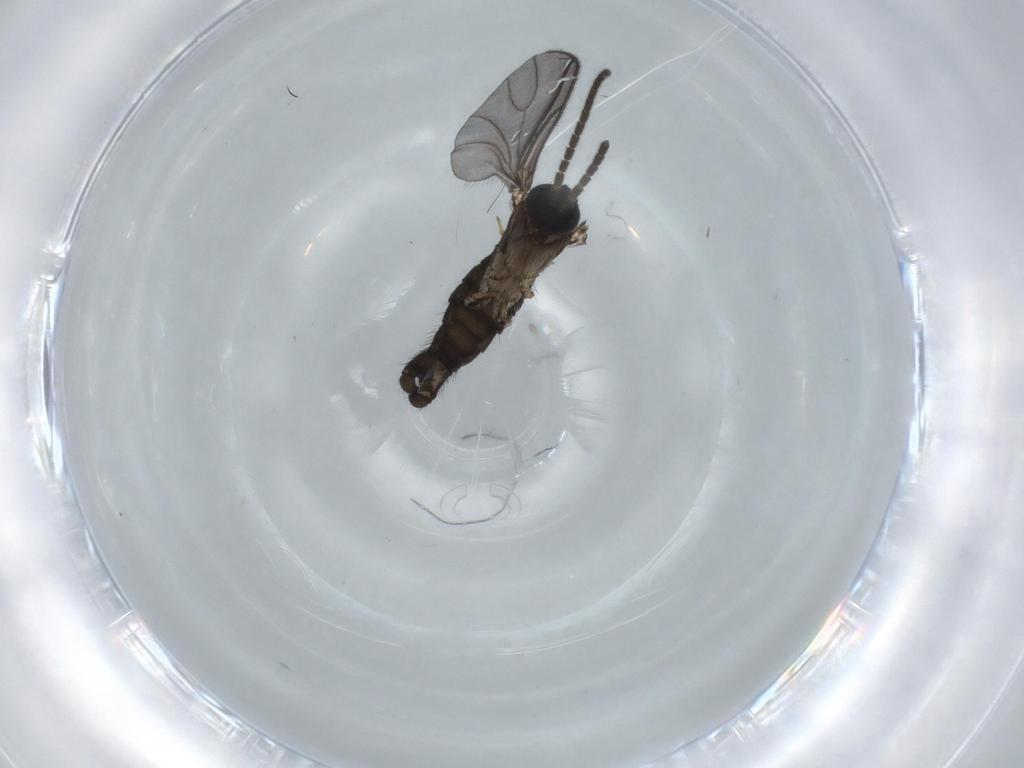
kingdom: Animalia
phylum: Arthropoda
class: Insecta
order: Diptera
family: Sciaridae
